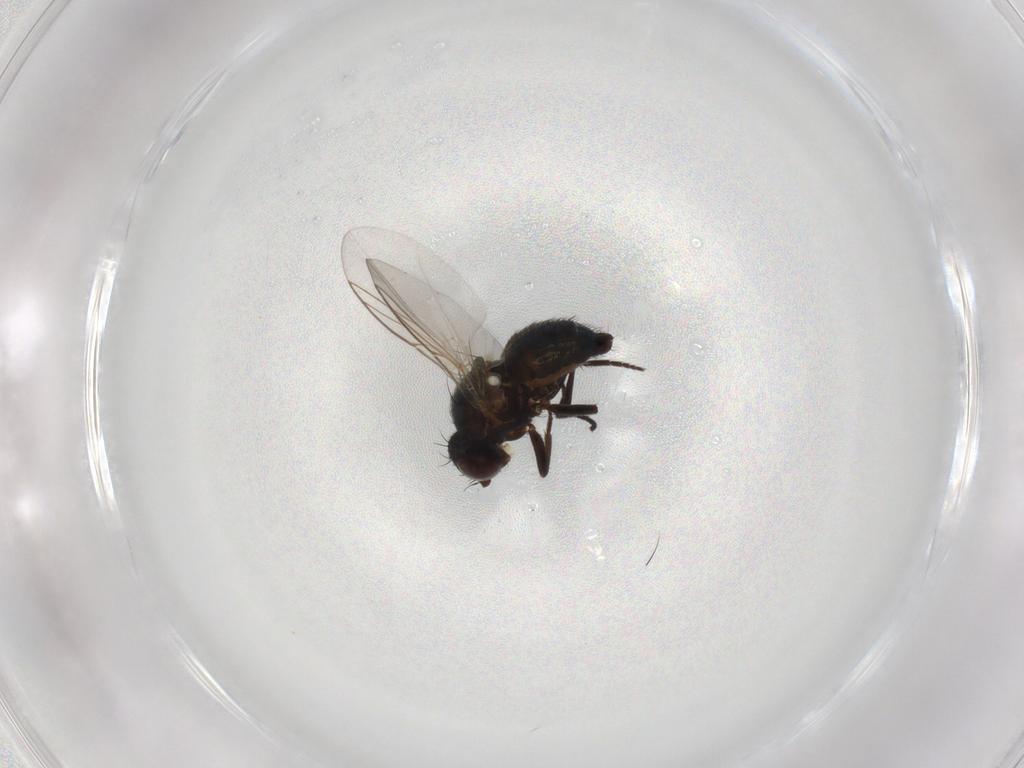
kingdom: Animalia
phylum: Arthropoda
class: Insecta
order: Diptera
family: Agromyzidae
